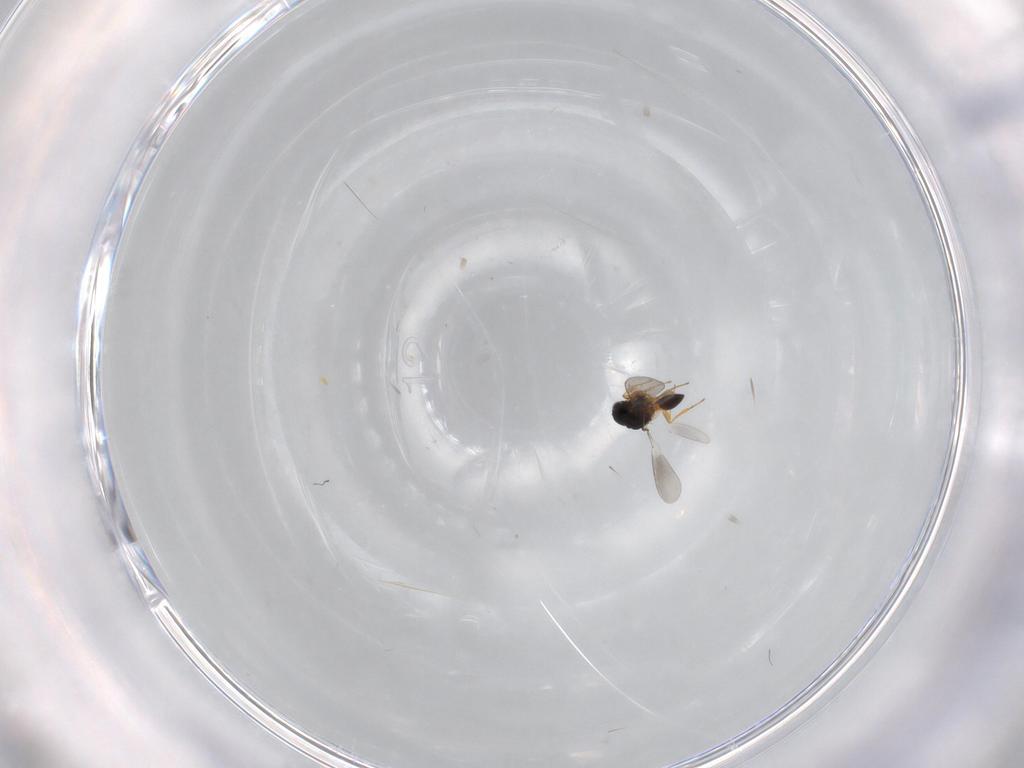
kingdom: Animalia
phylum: Arthropoda
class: Insecta
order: Hymenoptera
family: Platygastridae
